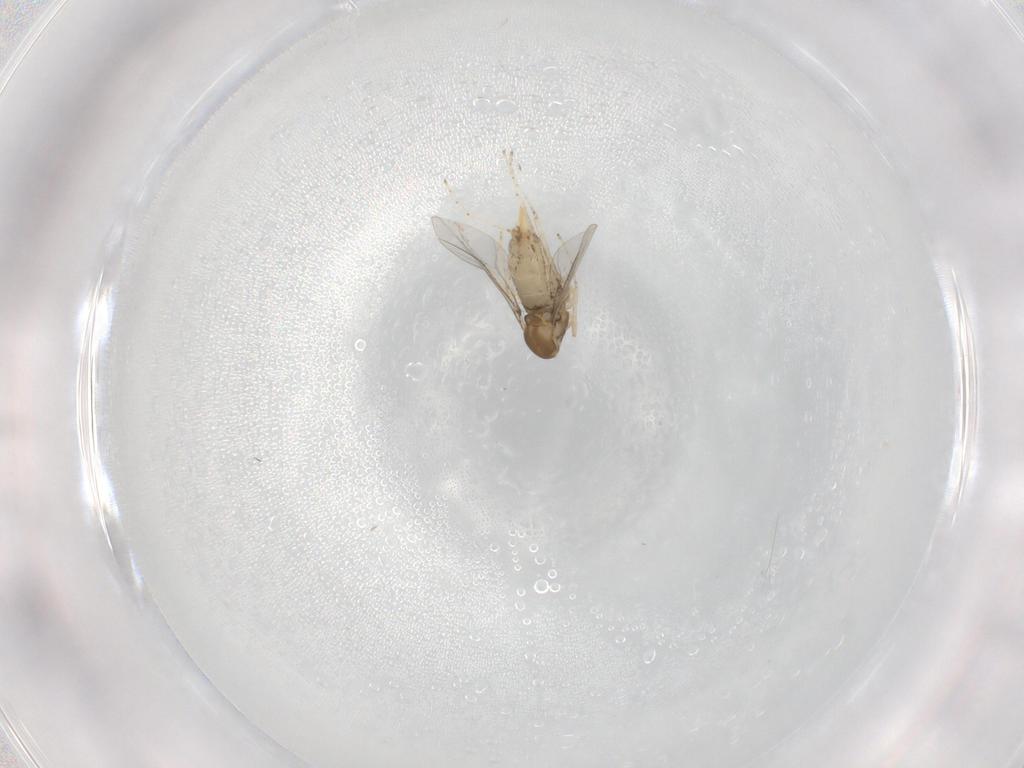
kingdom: Animalia
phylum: Arthropoda
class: Insecta
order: Diptera
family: Cecidomyiidae
